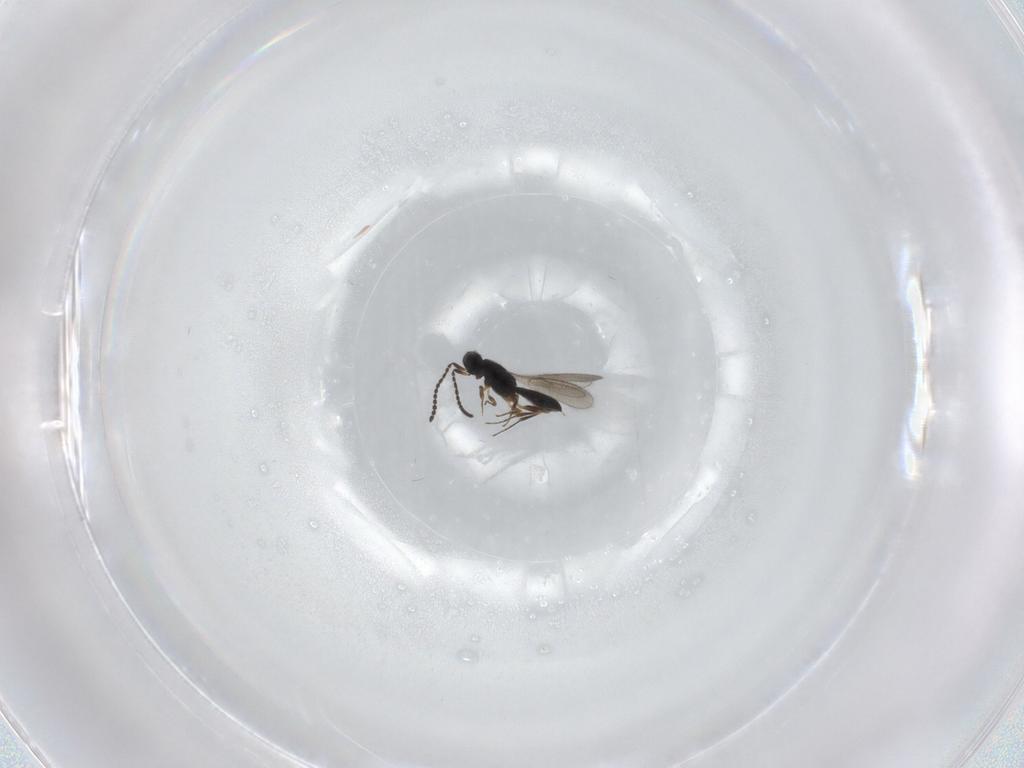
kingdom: Animalia
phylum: Arthropoda
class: Insecta
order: Hymenoptera
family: Scelionidae
